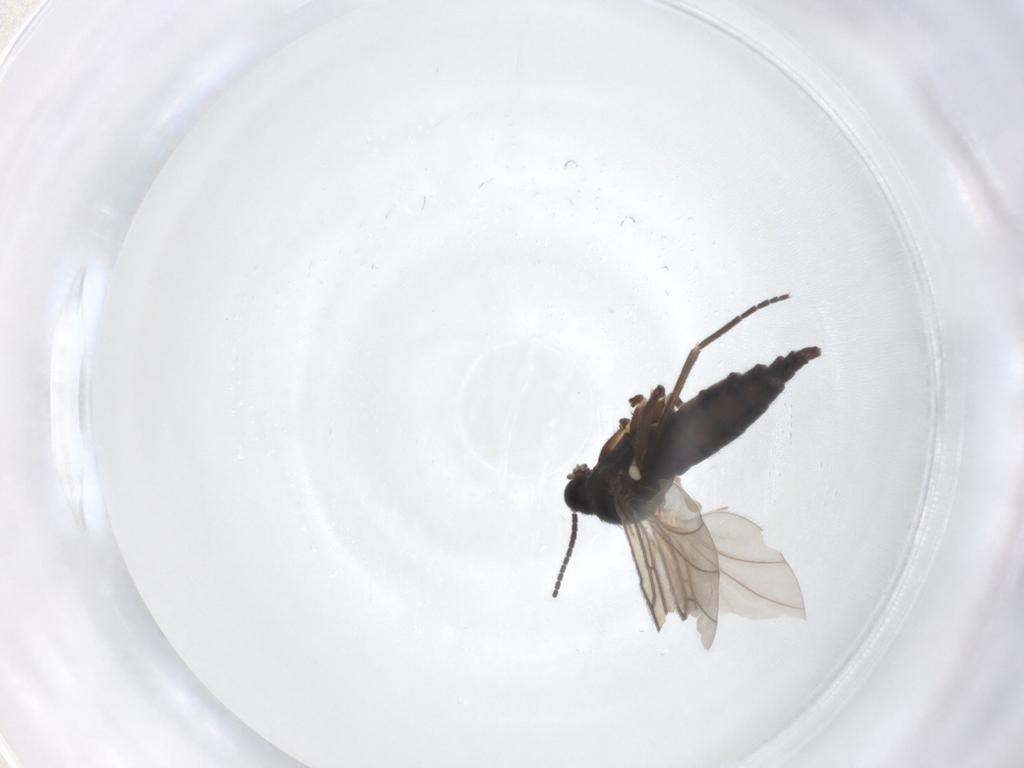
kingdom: Animalia
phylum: Arthropoda
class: Insecta
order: Diptera
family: Sciaridae
